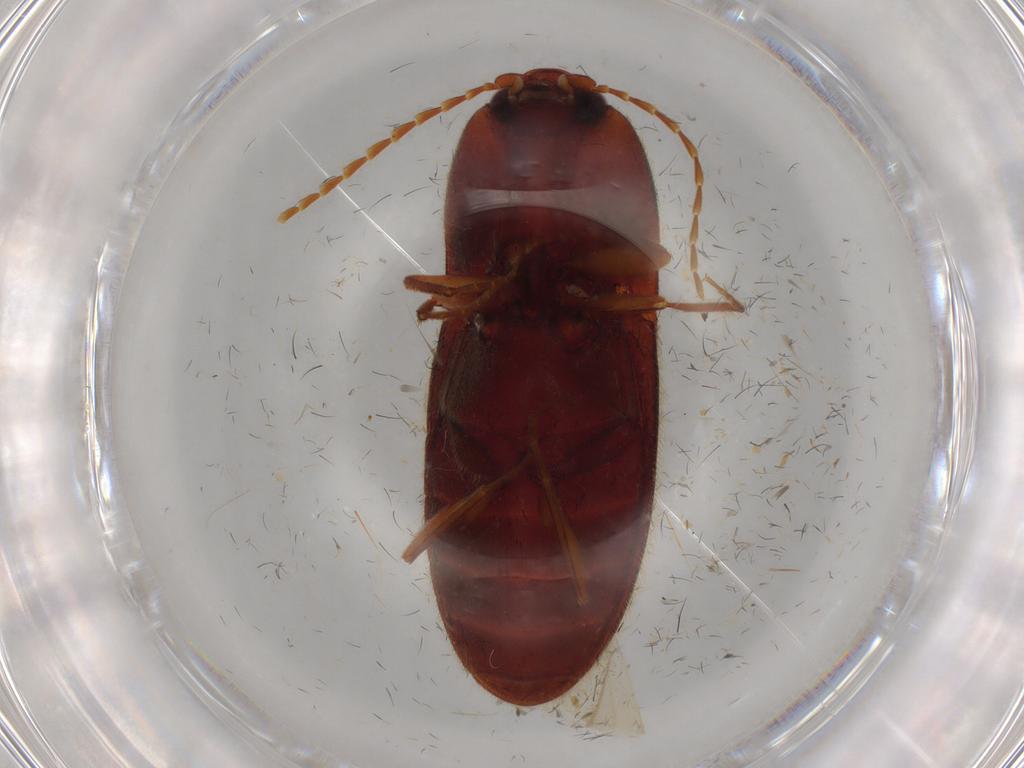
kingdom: Animalia
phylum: Arthropoda
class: Insecta
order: Coleoptera
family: Elateridae
